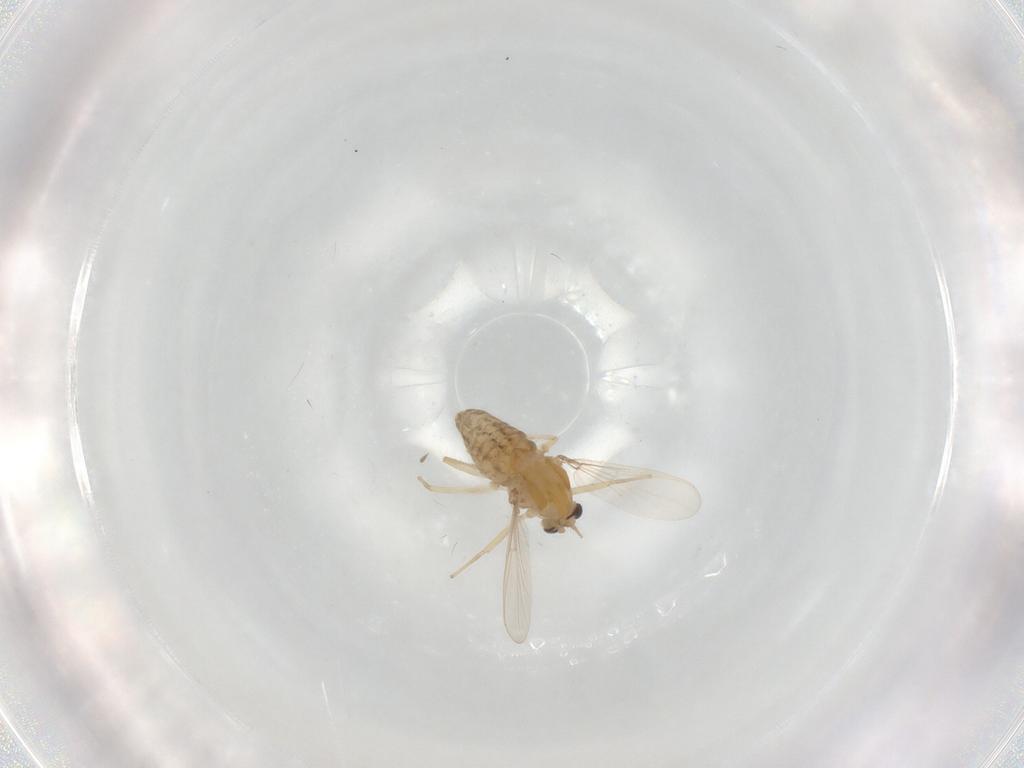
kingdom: Animalia
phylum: Arthropoda
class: Insecta
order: Diptera
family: Chironomidae
